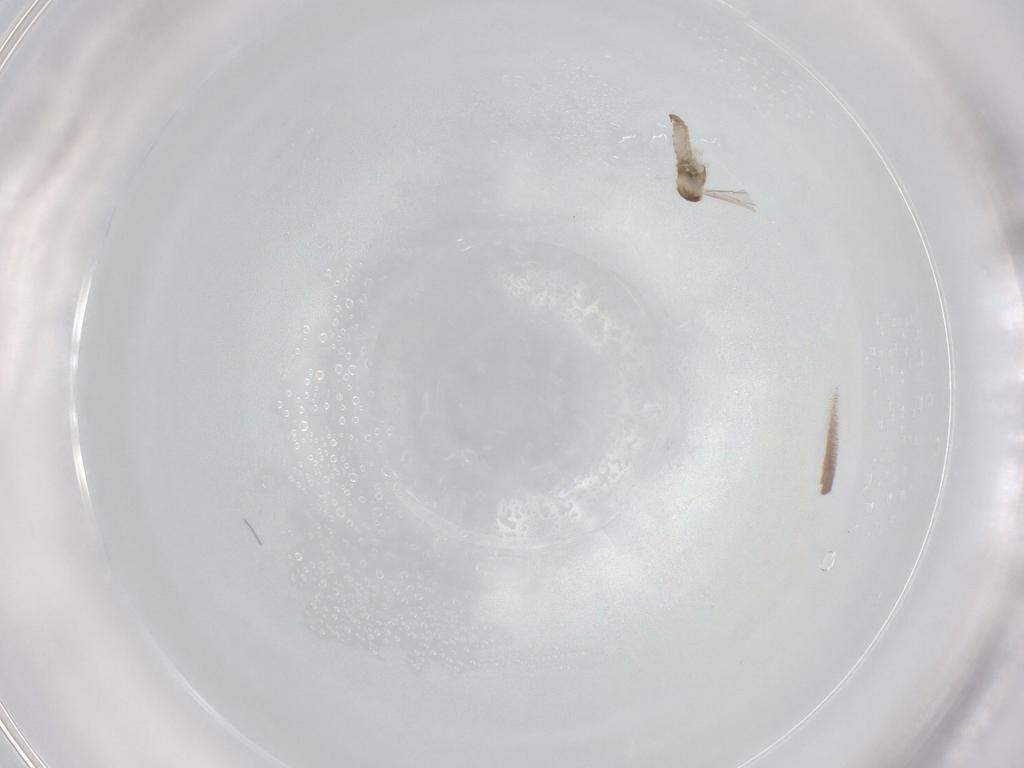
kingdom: Animalia
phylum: Arthropoda
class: Insecta
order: Diptera
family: Cecidomyiidae
